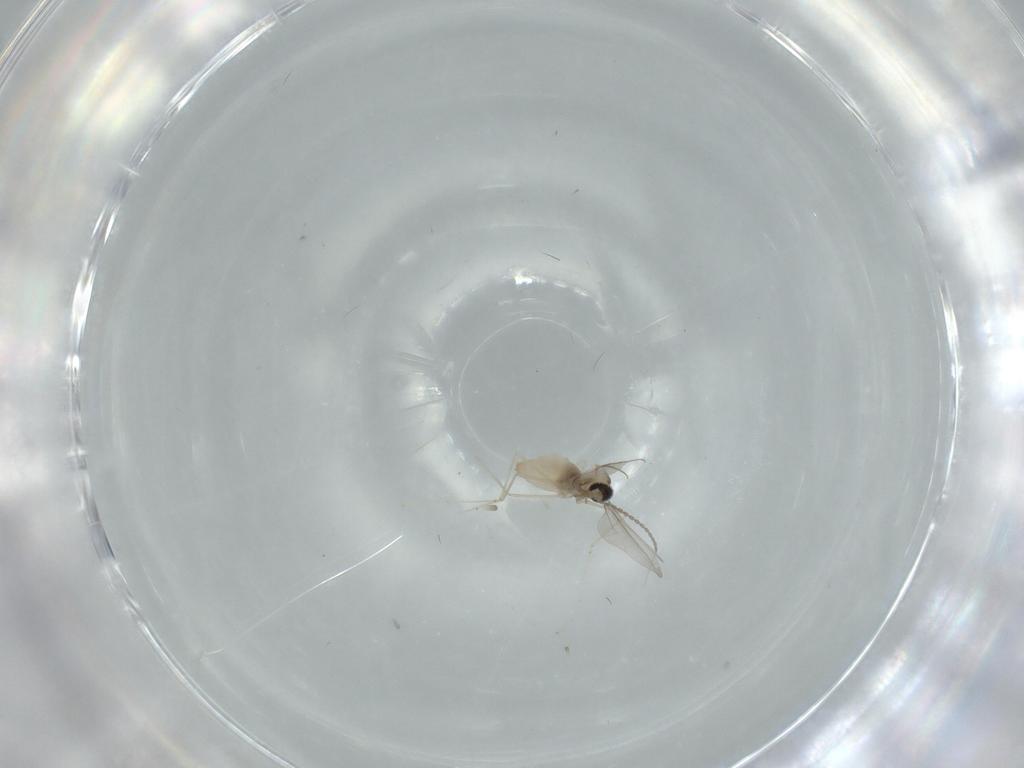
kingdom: Animalia
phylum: Arthropoda
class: Insecta
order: Diptera
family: Cecidomyiidae
